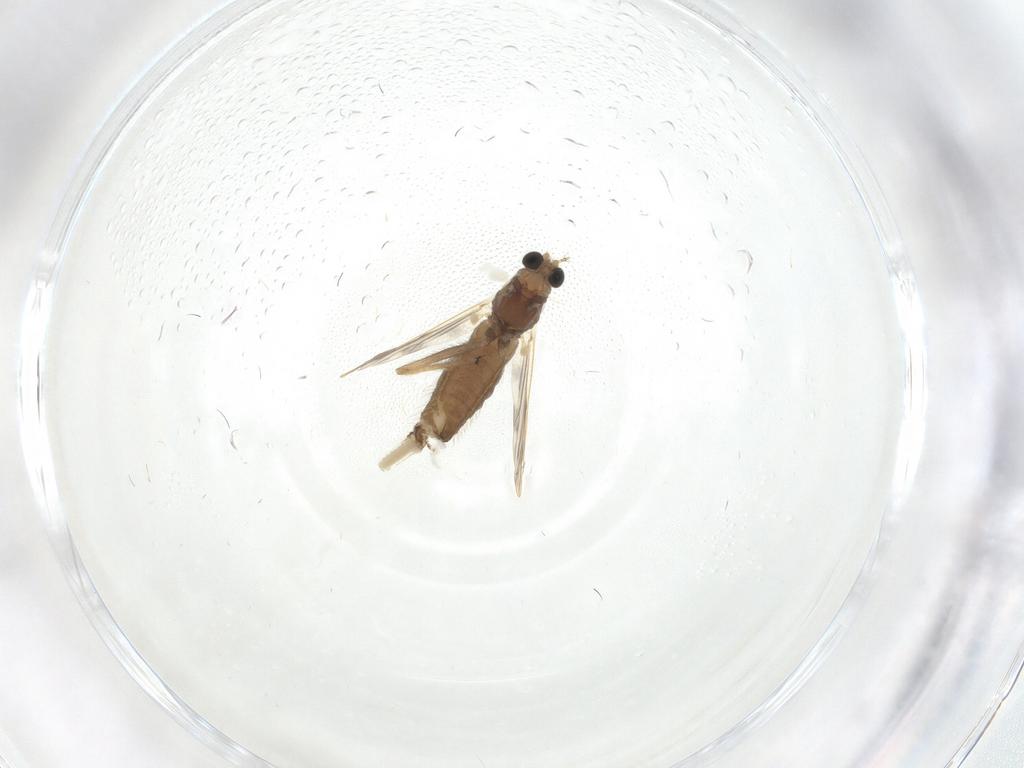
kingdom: Animalia
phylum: Arthropoda
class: Insecta
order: Diptera
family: Chironomidae
